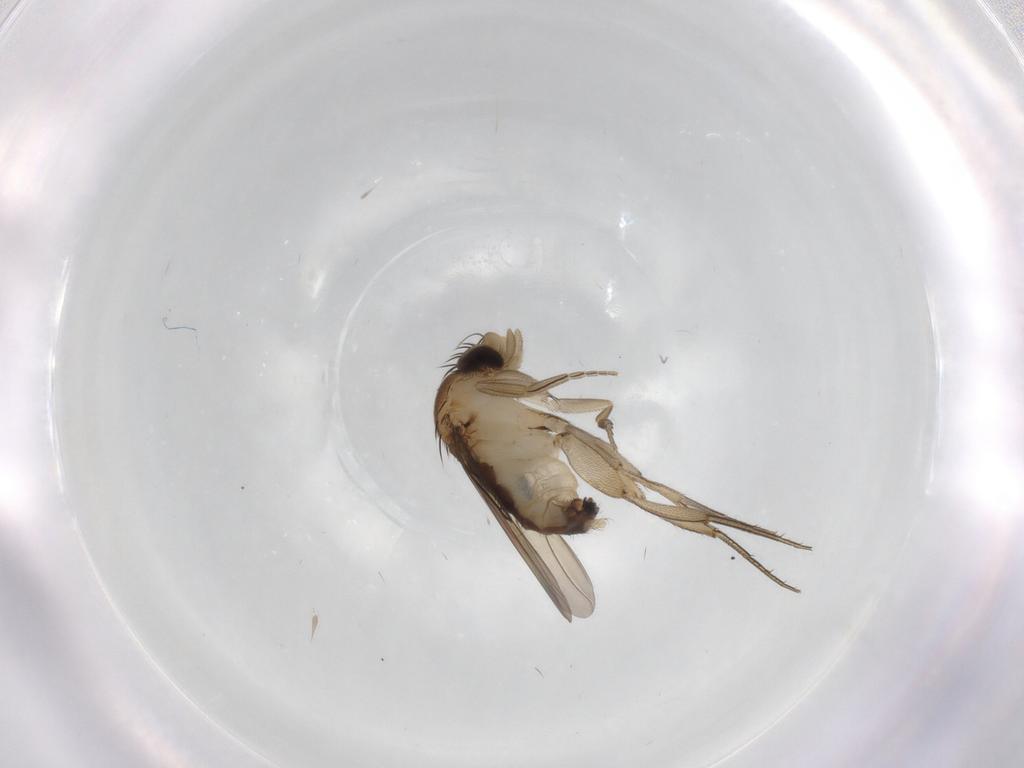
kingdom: Animalia
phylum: Arthropoda
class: Insecta
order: Diptera
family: Phoridae
